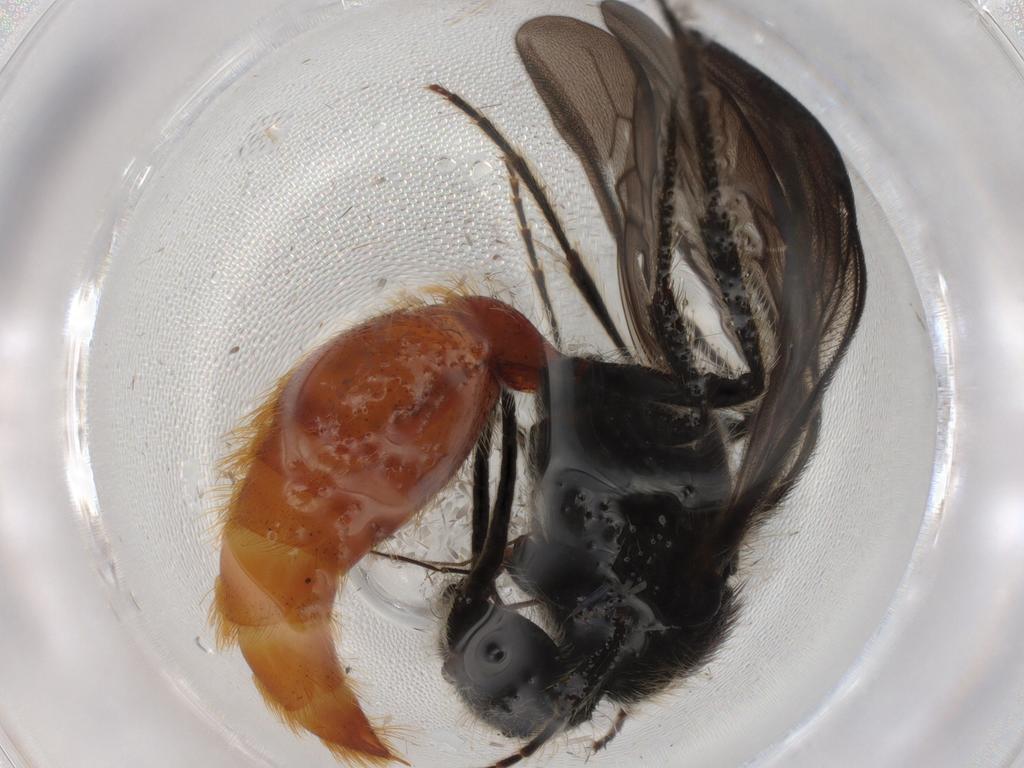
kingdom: Animalia
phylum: Arthropoda
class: Insecta
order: Hymenoptera
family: Mutillidae
